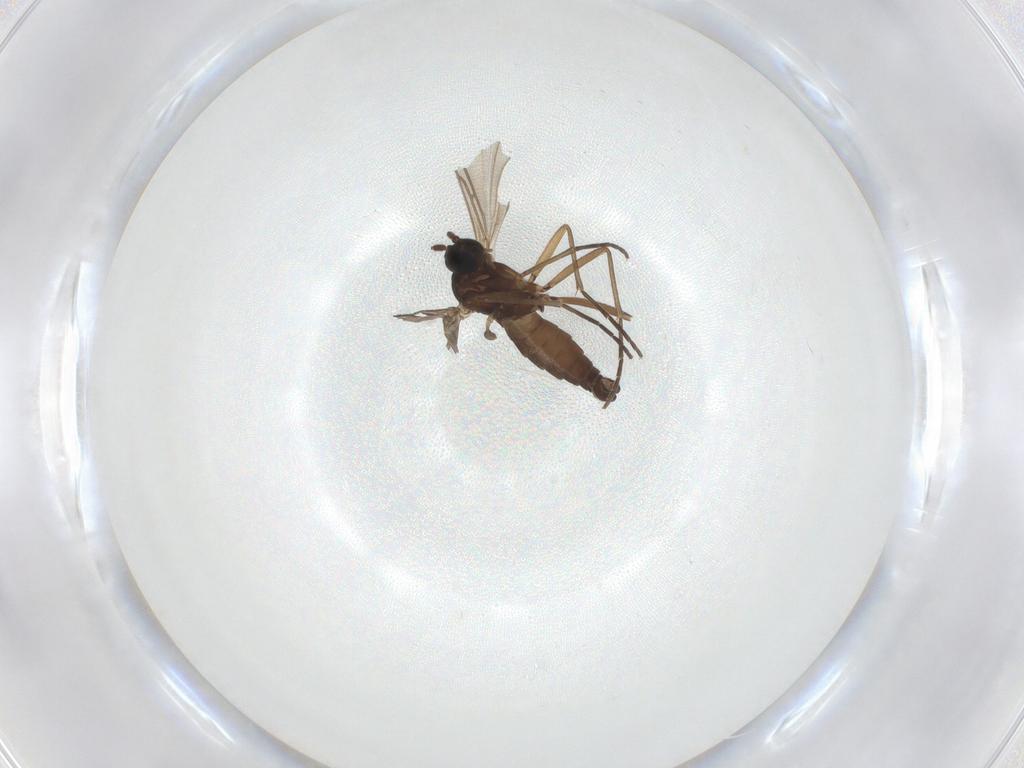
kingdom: Animalia
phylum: Arthropoda
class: Insecta
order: Diptera
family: Sciaridae
